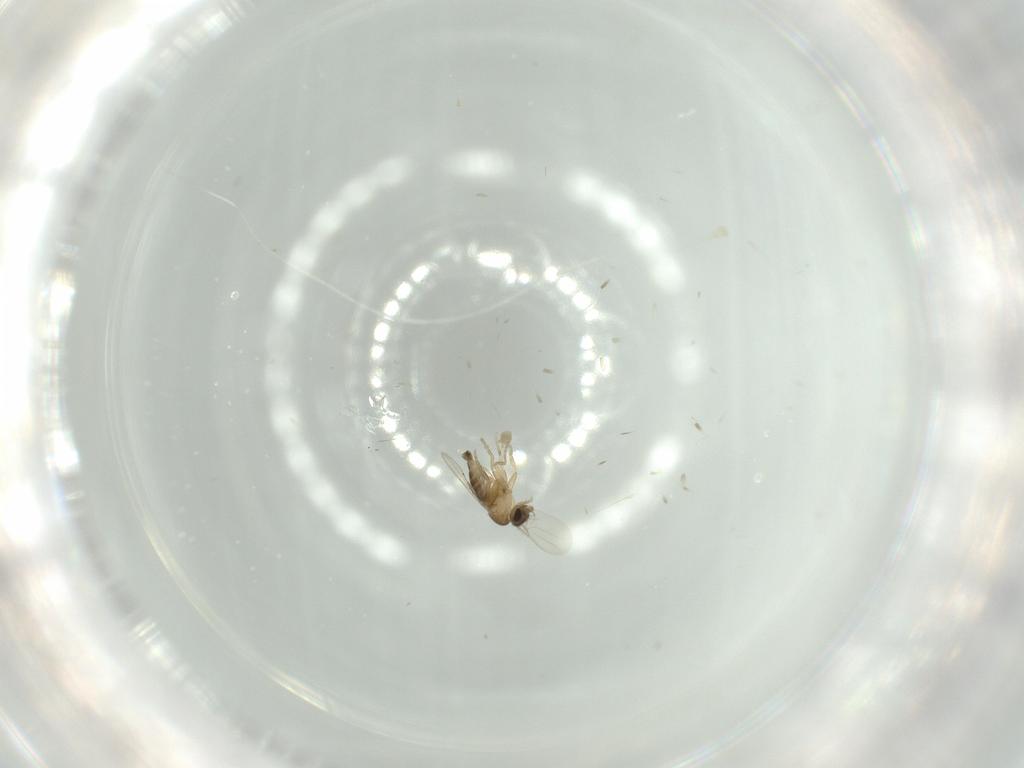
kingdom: Animalia
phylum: Arthropoda
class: Insecta
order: Diptera
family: Phoridae
